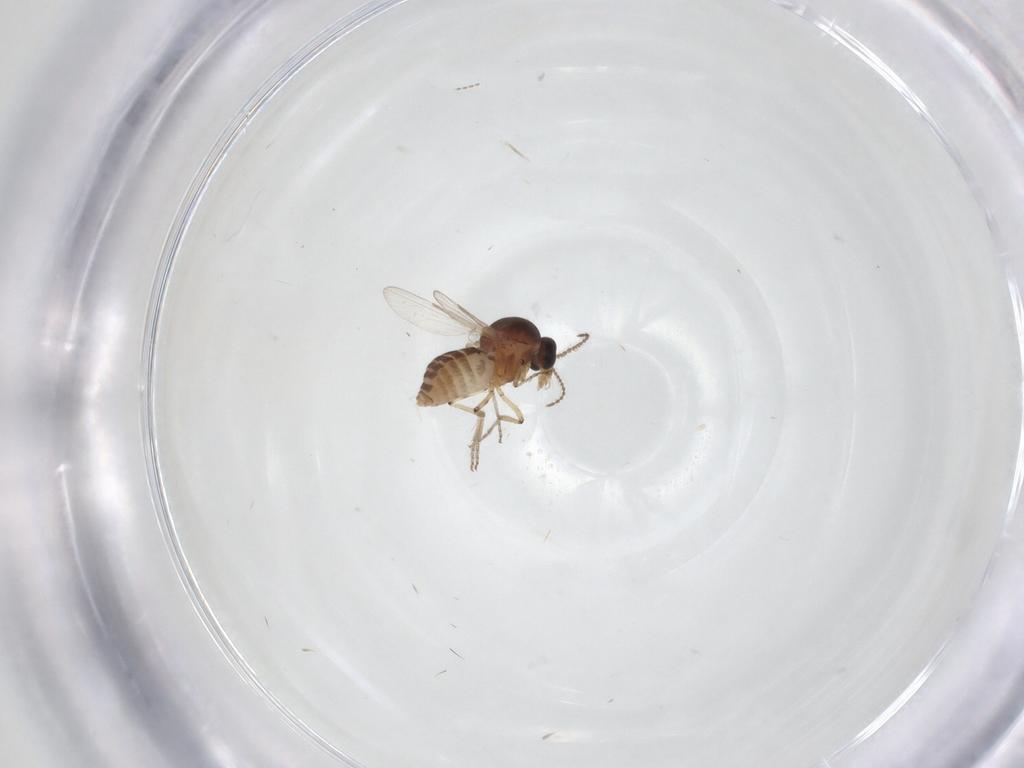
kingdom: Animalia
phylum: Arthropoda
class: Insecta
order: Diptera
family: Ceratopogonidae
